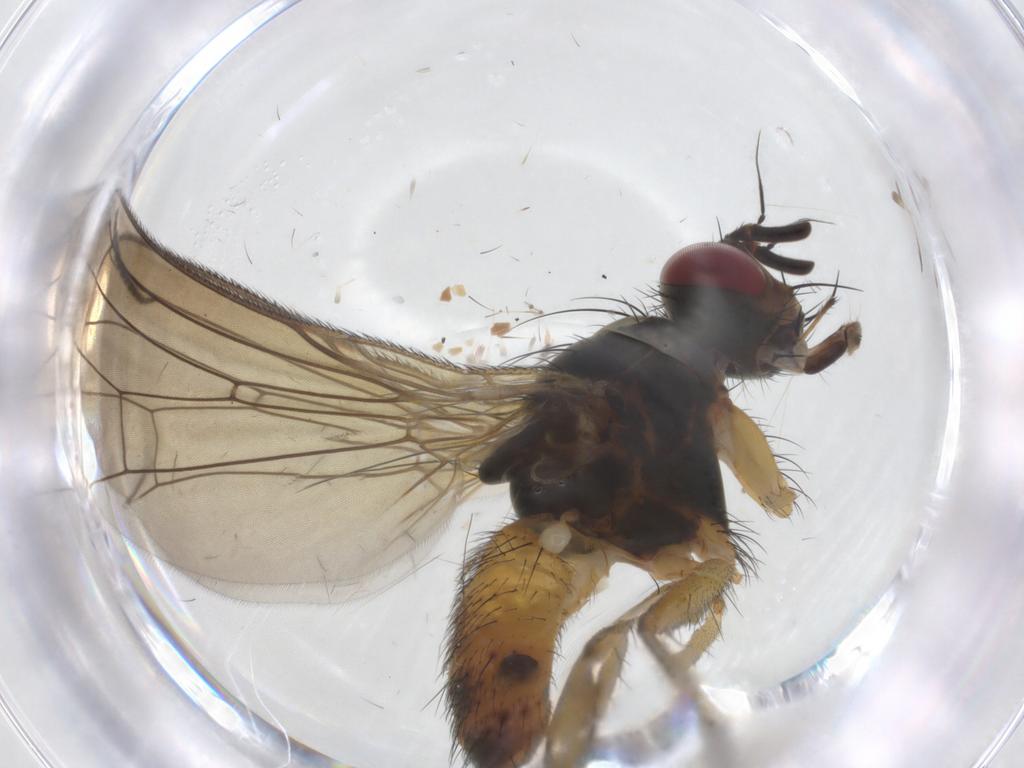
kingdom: Animalia
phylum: Arthropoda
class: Insecta
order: Diptera
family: Muscidae
